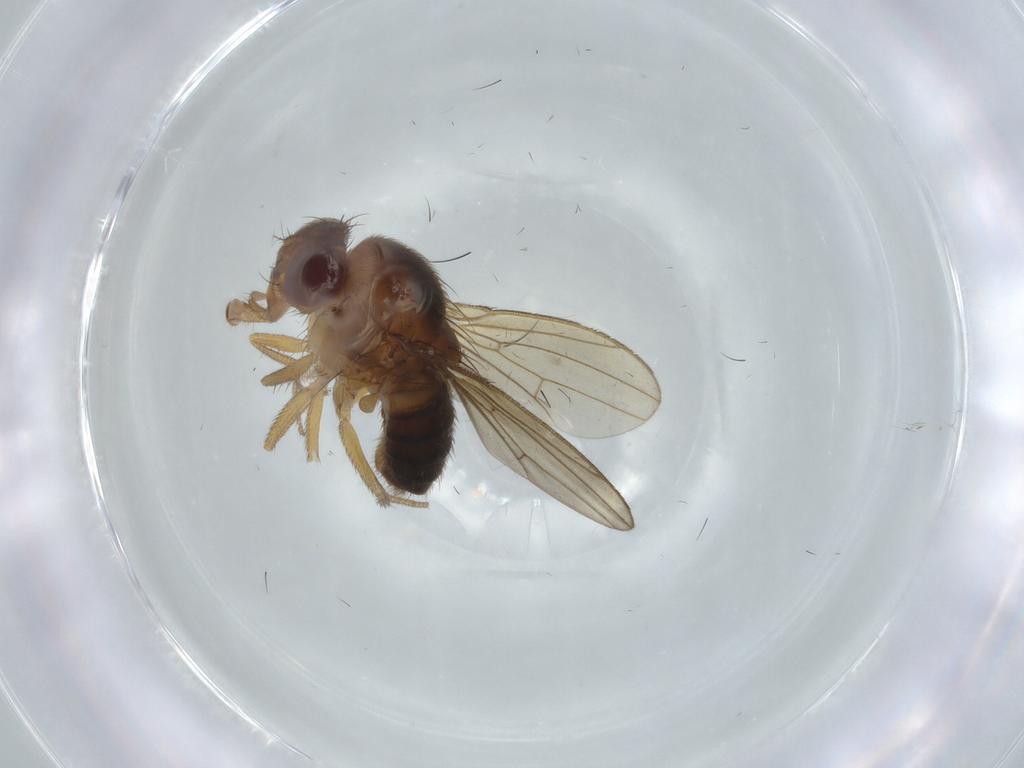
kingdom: Animalia
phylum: Arthropoda
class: Insecta
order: Diptera
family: Drosophilidae
